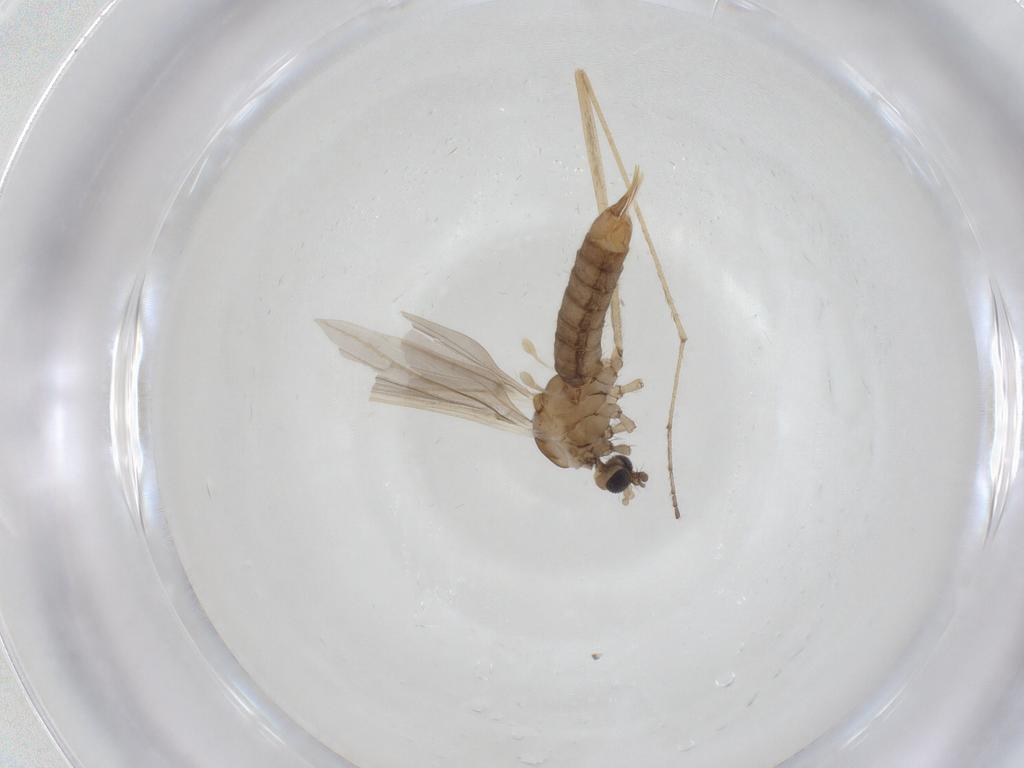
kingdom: Animalia
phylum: Arthropoda
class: Insecta
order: Diptera
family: Limoniidae
